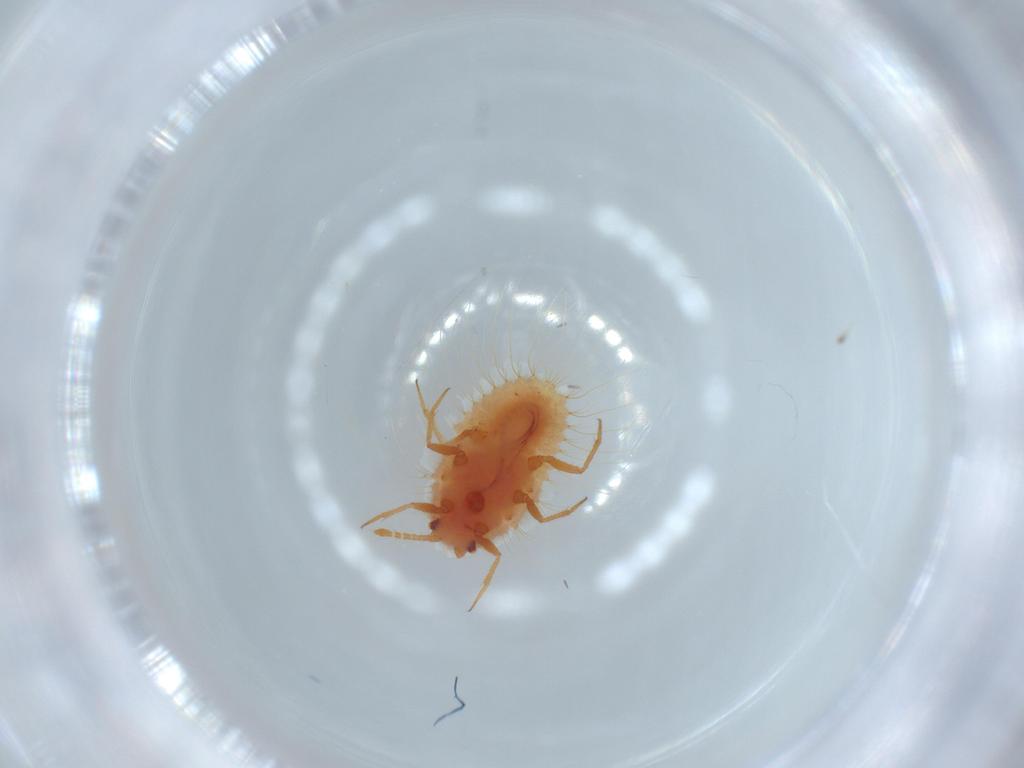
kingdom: Animalia
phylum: Arthropoda
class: Insecta
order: Hemiptera
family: Coccoidea_incertae_sedis
